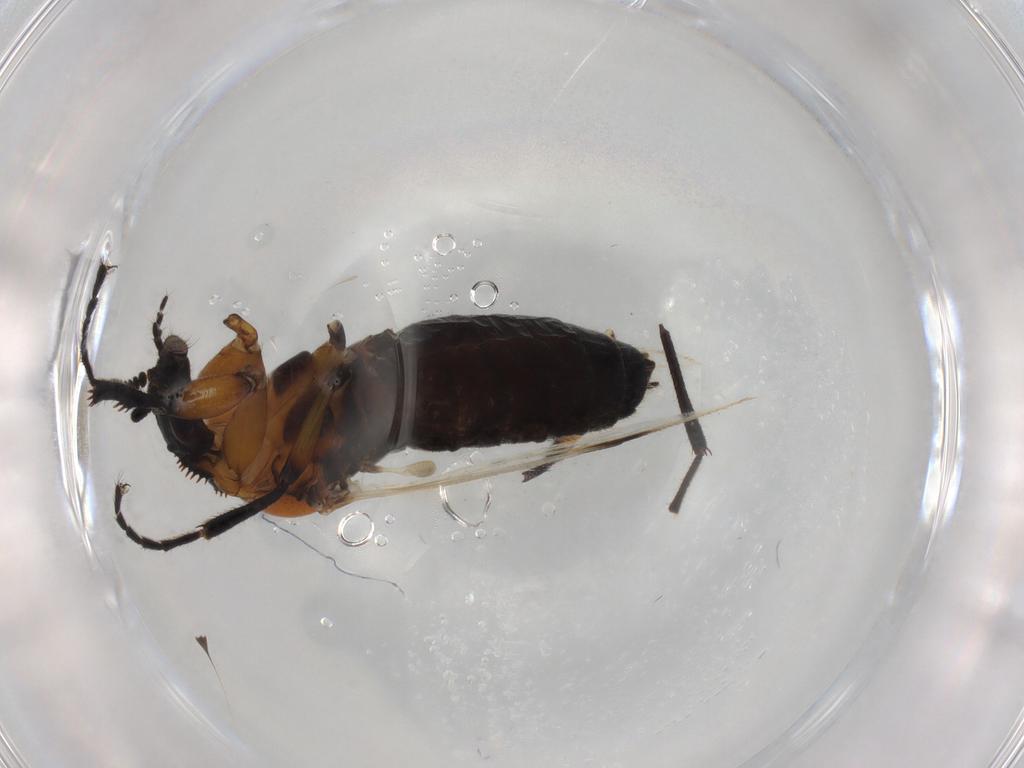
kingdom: Animalia
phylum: Arthropoda
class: Insecta
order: Diptera
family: Bibionidae
